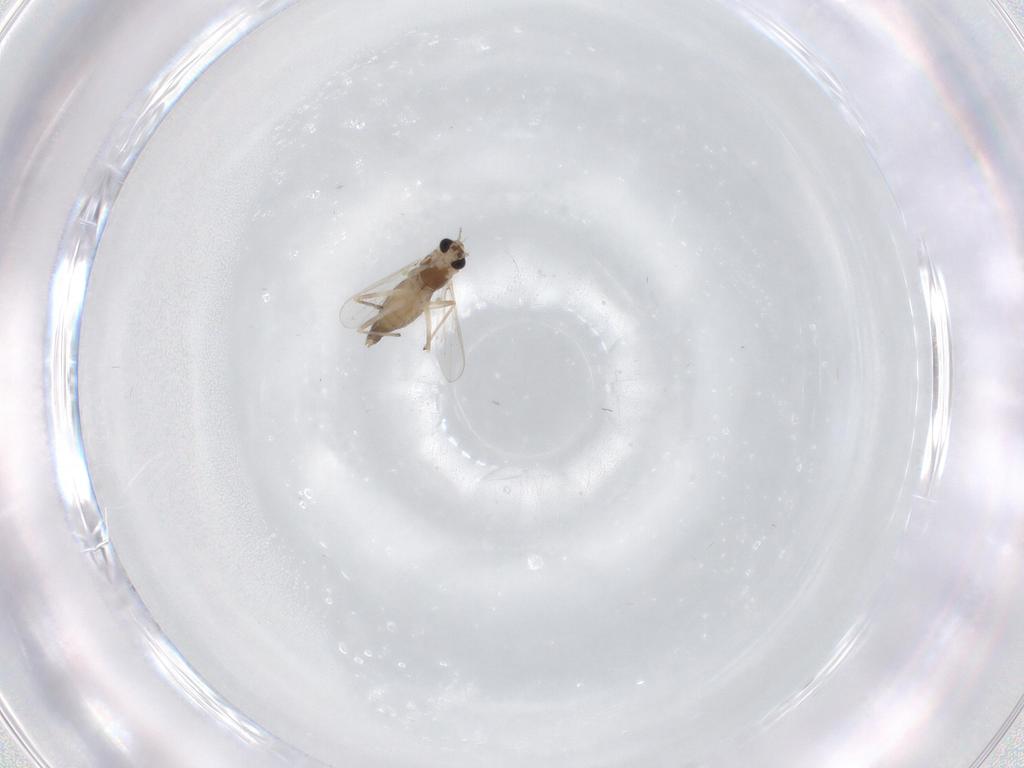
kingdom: Animalia
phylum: Arthropoda
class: Insecta
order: Diptera
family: Chironomidae
